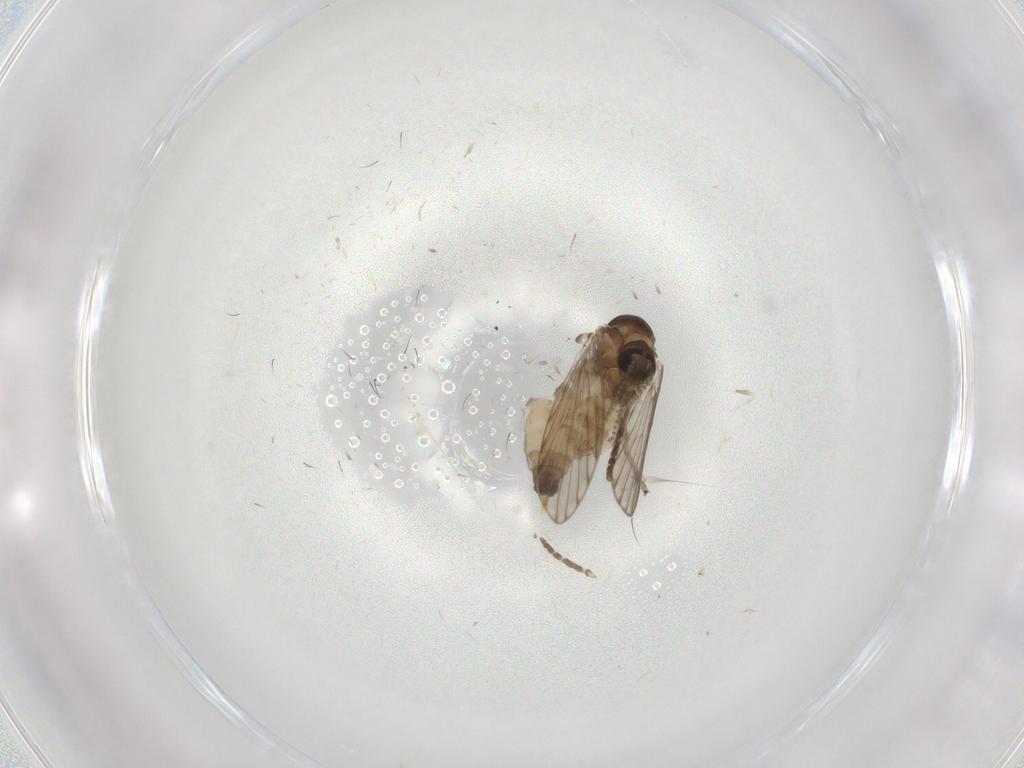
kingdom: Animalia
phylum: Arthropoda
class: Insecta
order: Diptera
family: Psychodidae
